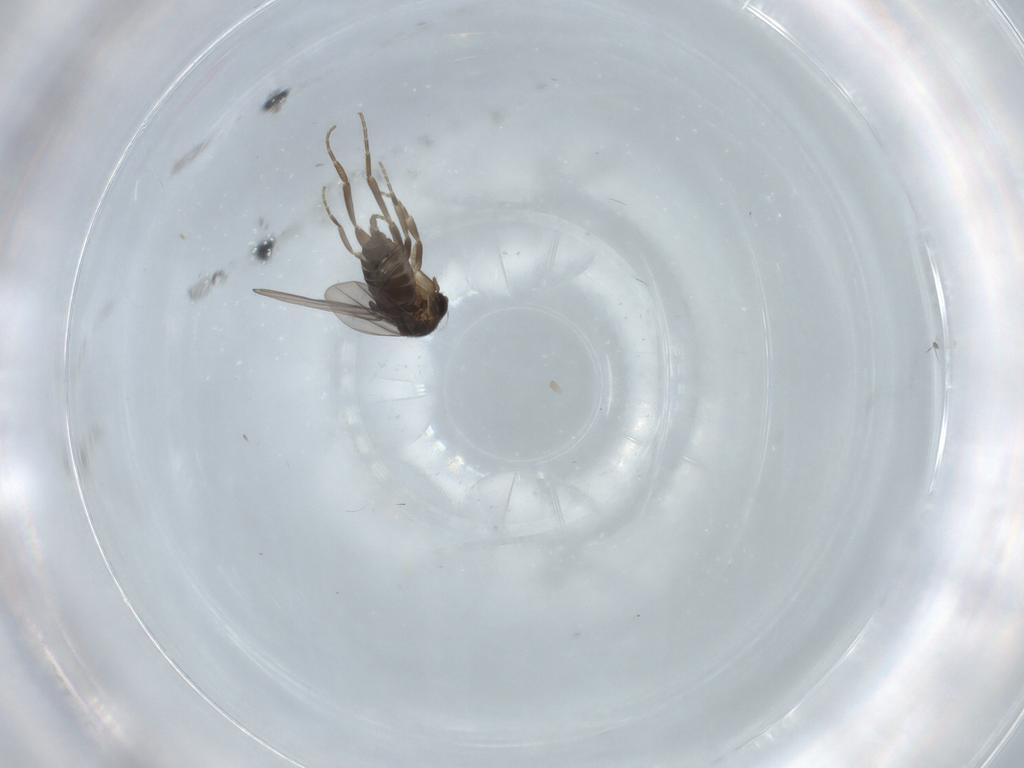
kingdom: Animalia
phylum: Arthropoda
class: Insecta
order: Diptera
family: Phoridae
